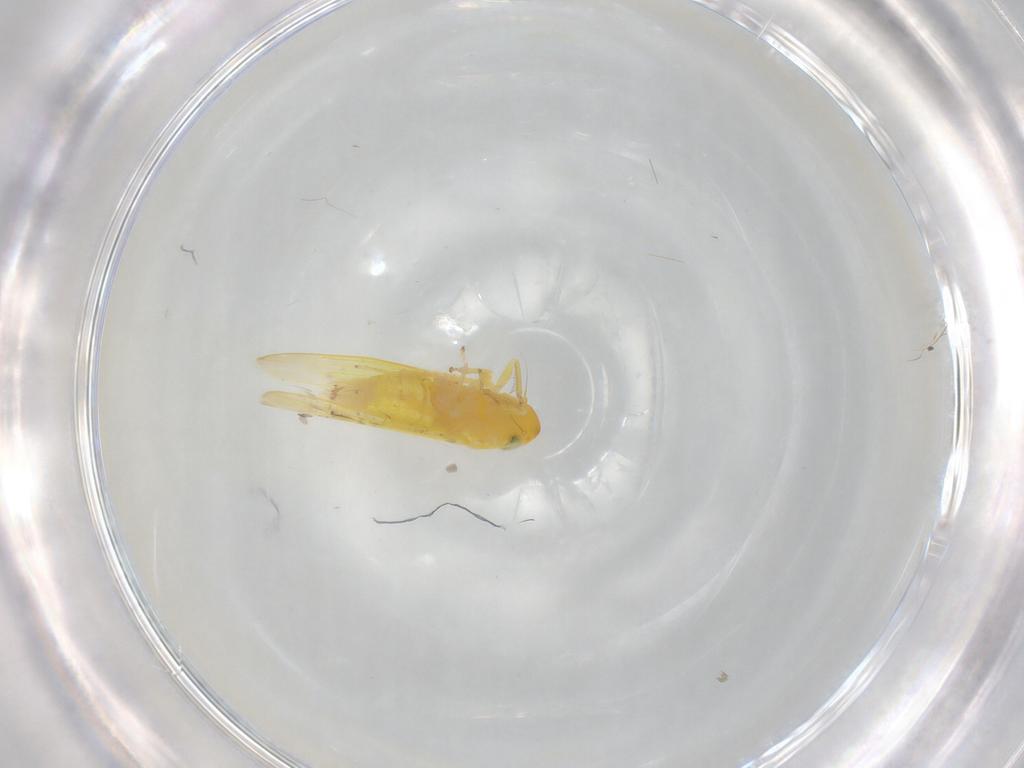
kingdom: Animalia
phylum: Arthropoda
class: Insecta
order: Hemiptera
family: Cicadellidae
